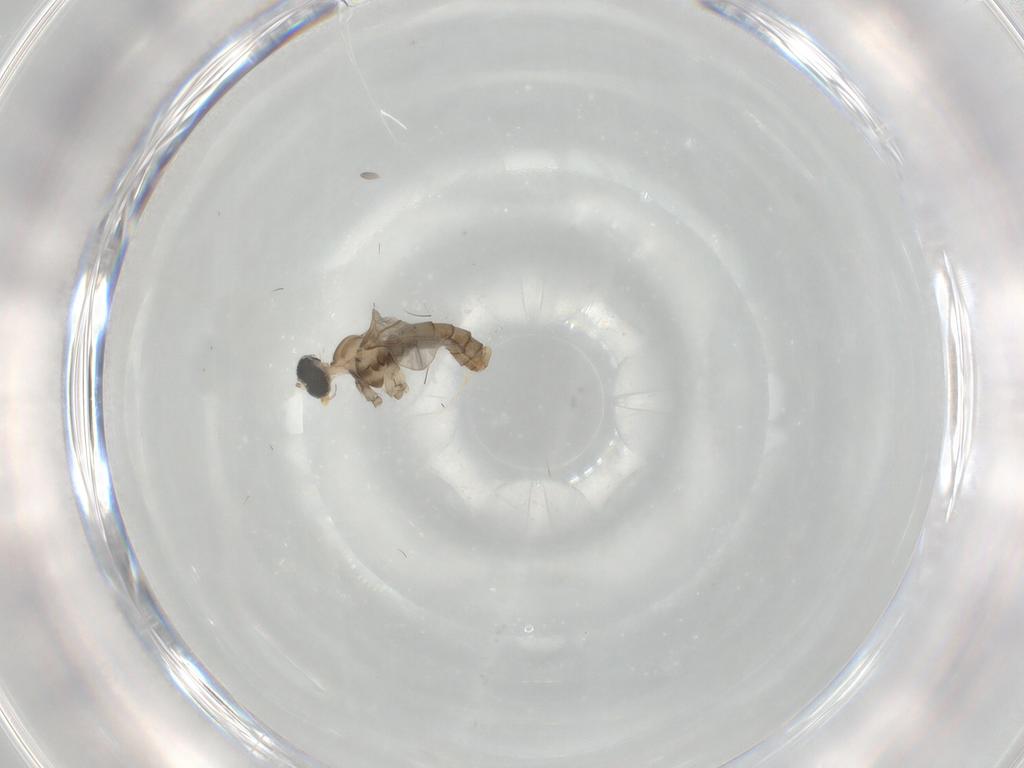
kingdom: Animalia
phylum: Arthropoda
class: Insecta
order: Diptera
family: Cecidomyiidae
